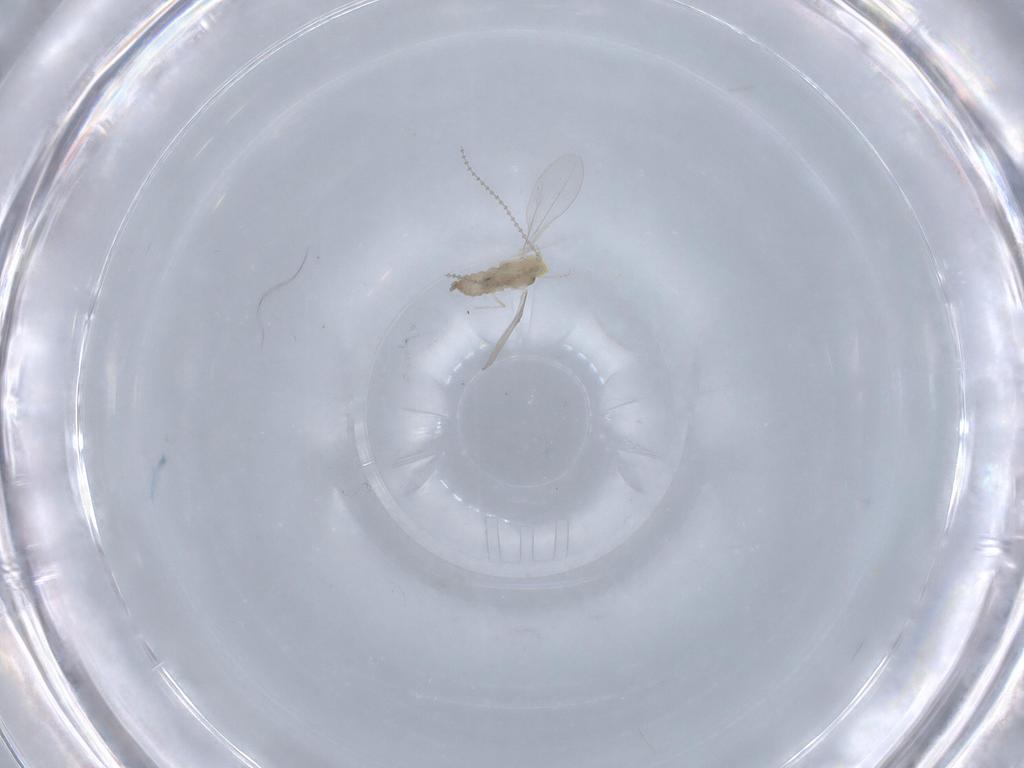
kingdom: Animalia
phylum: Arthropoda
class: Insecta
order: Diptera
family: Cecidomyiidae
